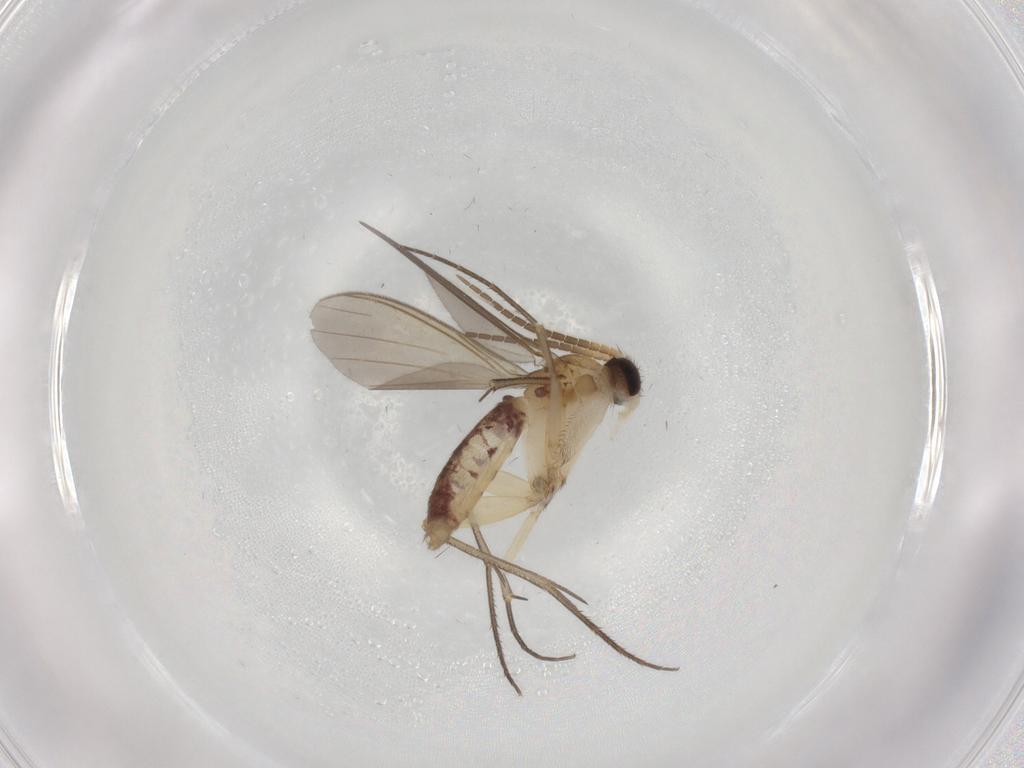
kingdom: Animalia
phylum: Arthropoda
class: Insecta
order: Diptera
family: Mycetophilidae
